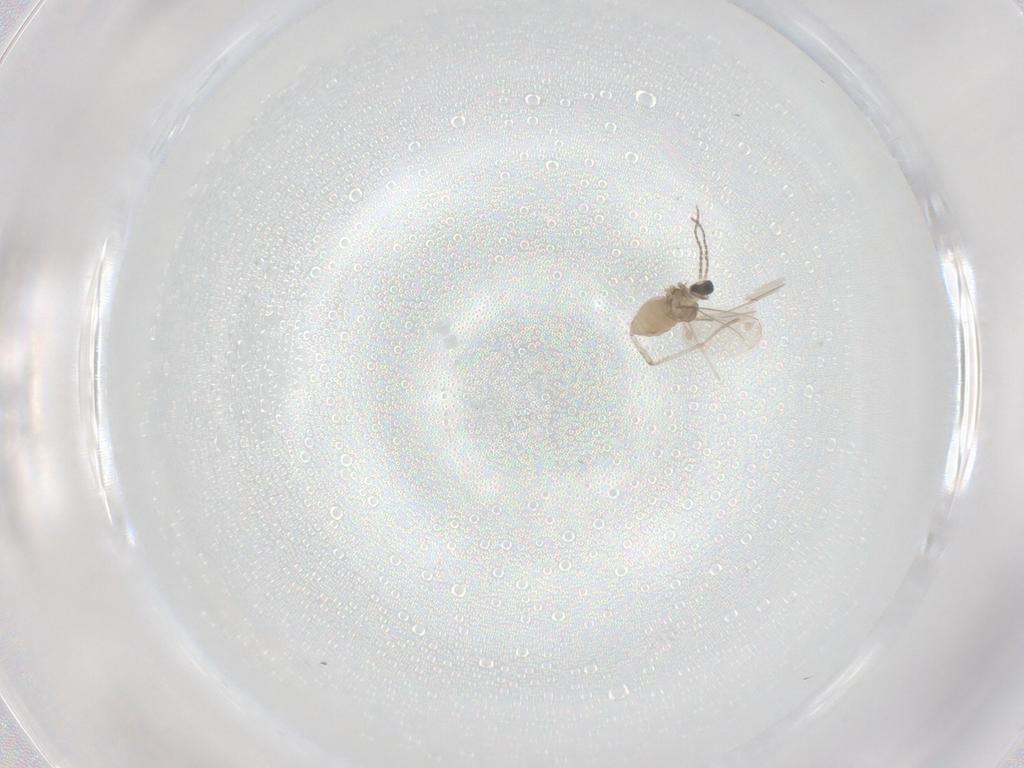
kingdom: Animalia
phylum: Arthropoda
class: Insecta
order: Diptera
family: Cecidomyiidae
